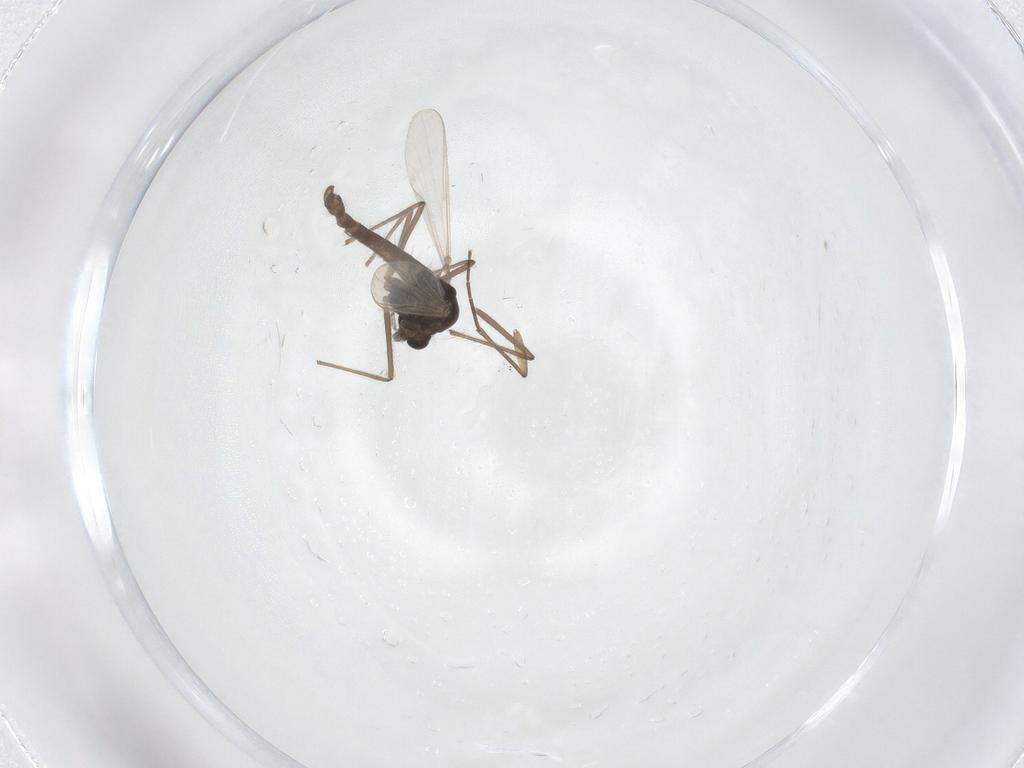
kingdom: Animalia
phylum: Arthropoda
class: Insecta
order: Diptera
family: Sciaridae
